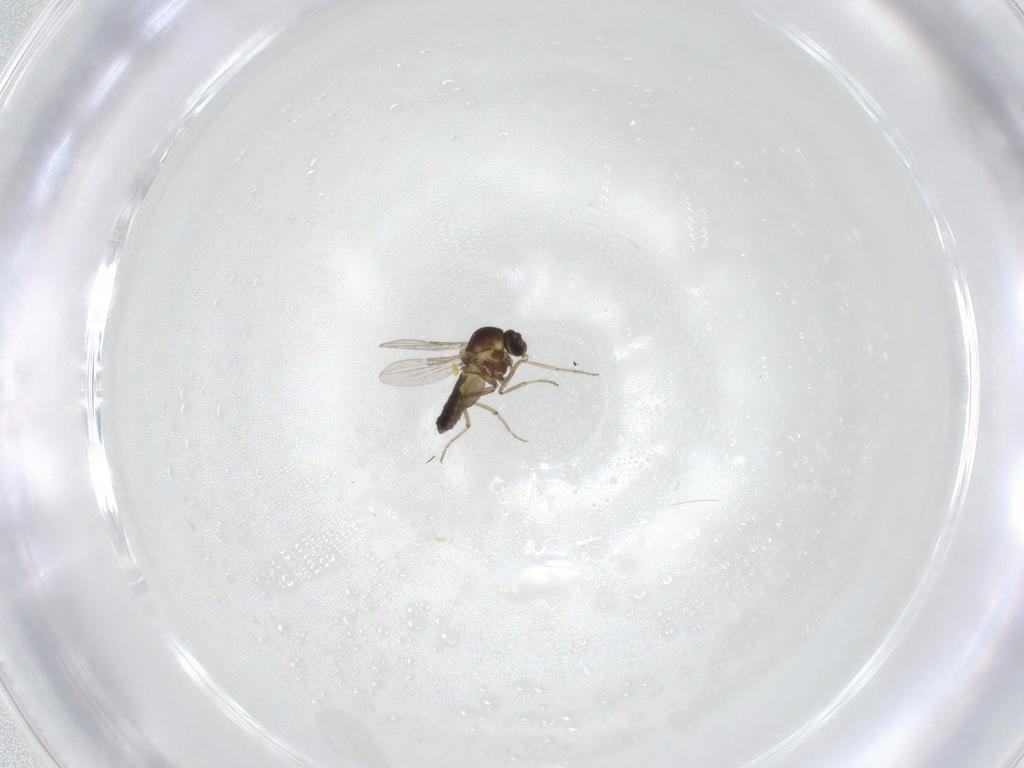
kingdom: Animalia
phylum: Arthropoda
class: Insecta
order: Diptera
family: Ceratopogonidae
